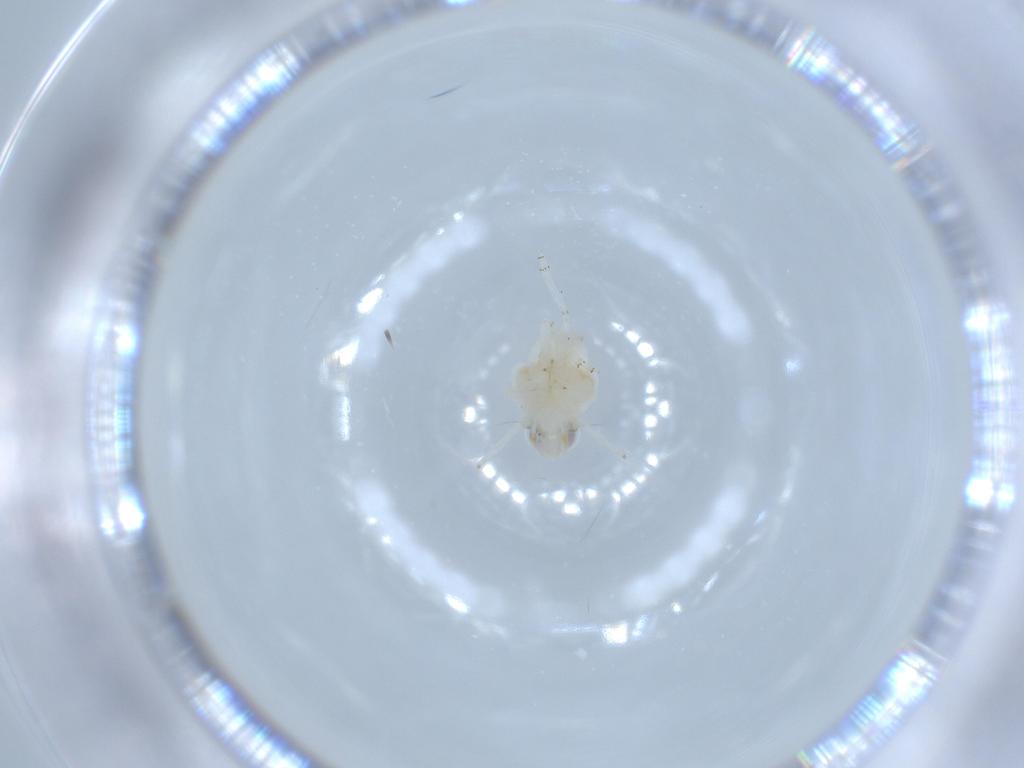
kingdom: Animalia
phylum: Arthropoda
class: Insecta
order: Hemiptera
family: Nogodinidae
